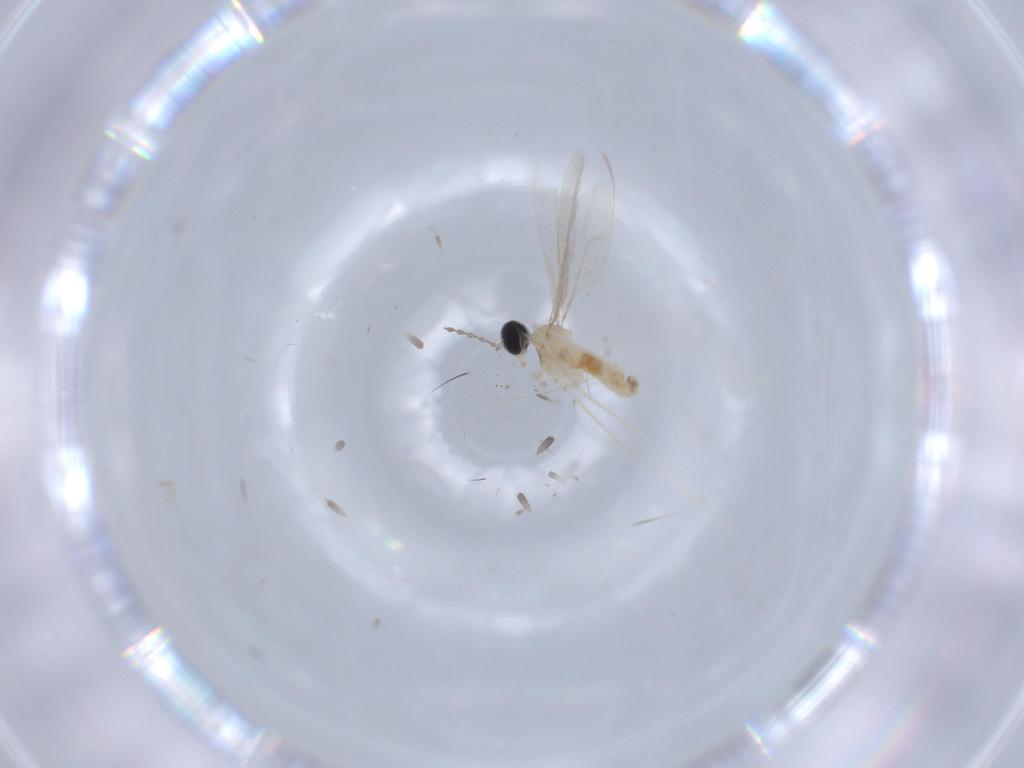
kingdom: Animalia
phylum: Arthropoda
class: Insecta
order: Diptera
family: Cecidomyiidae
